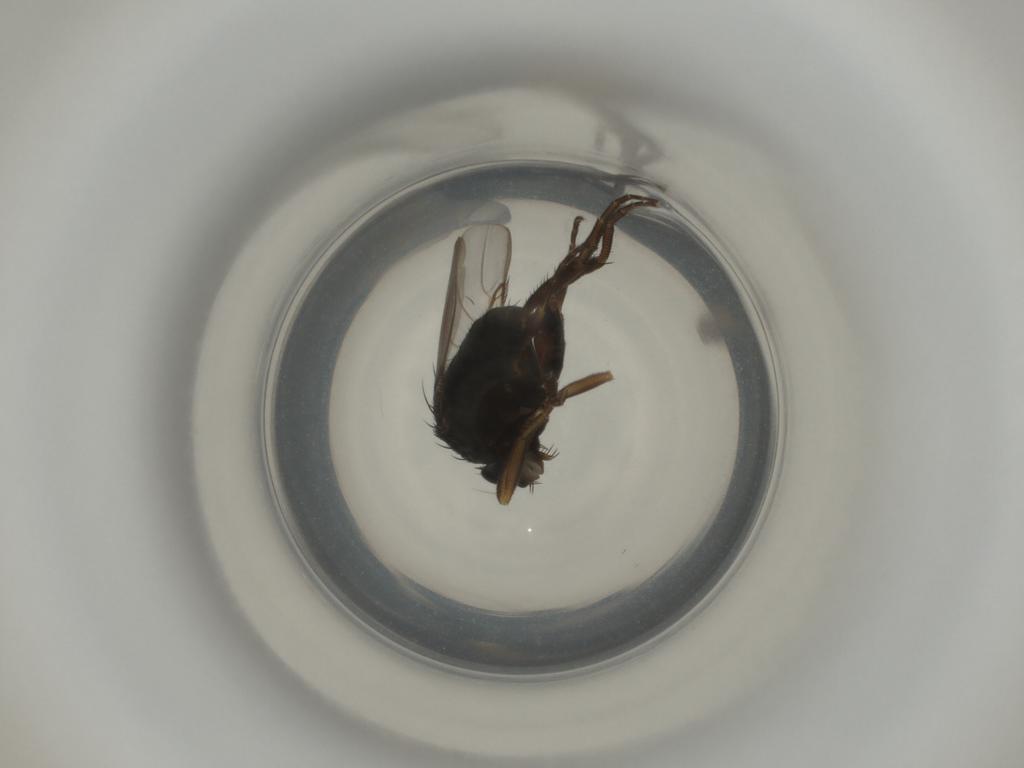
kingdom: Animalia
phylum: Arthropoda
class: Insecta
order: Diptera
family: Phoridae
